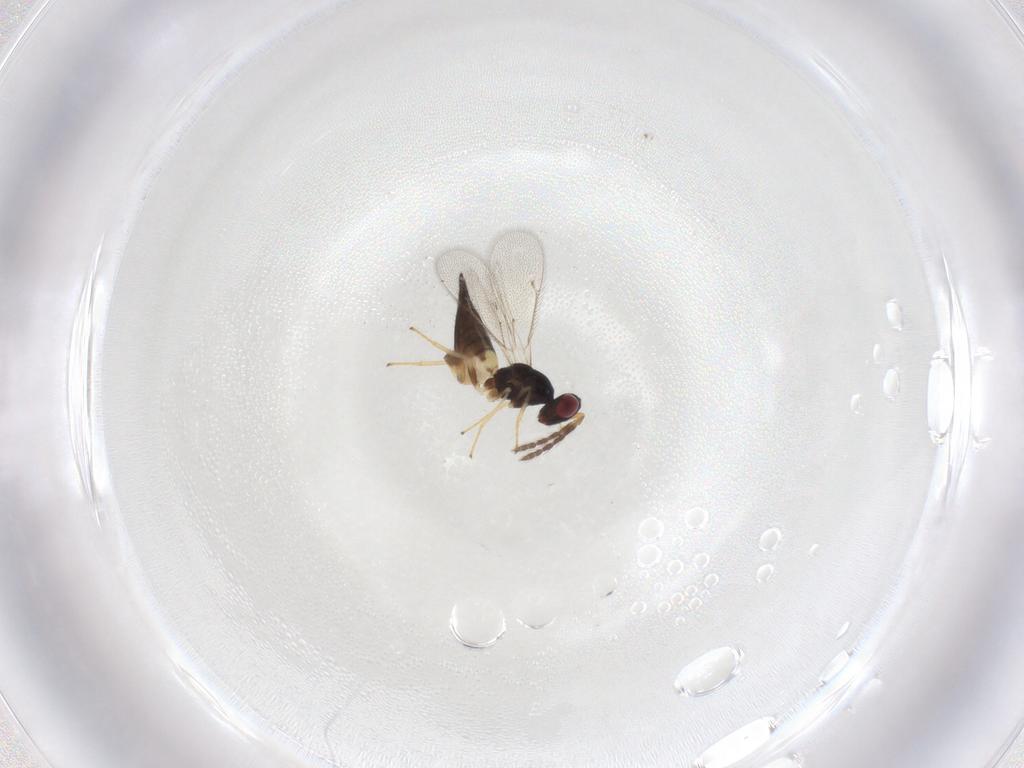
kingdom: Animalia
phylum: Arthropoda
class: Insecta
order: Hymenoptera
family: Eulophidae
